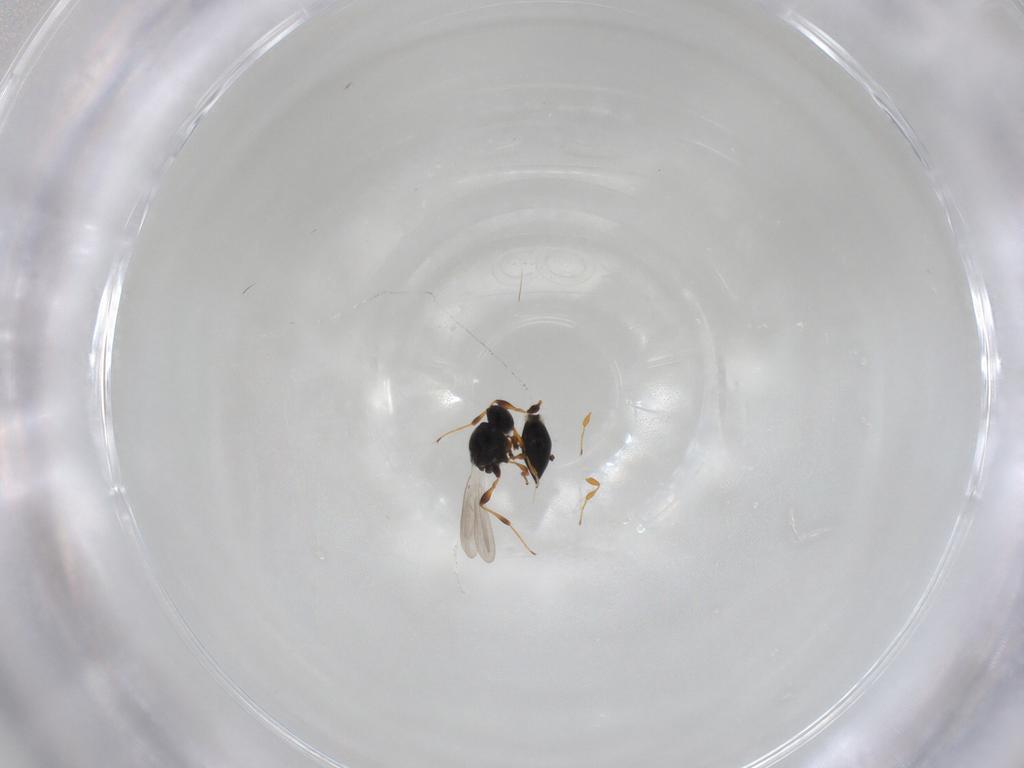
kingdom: Animalia
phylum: Arthropoda
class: Insecta
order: Hymenoptera
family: Platygastridae
